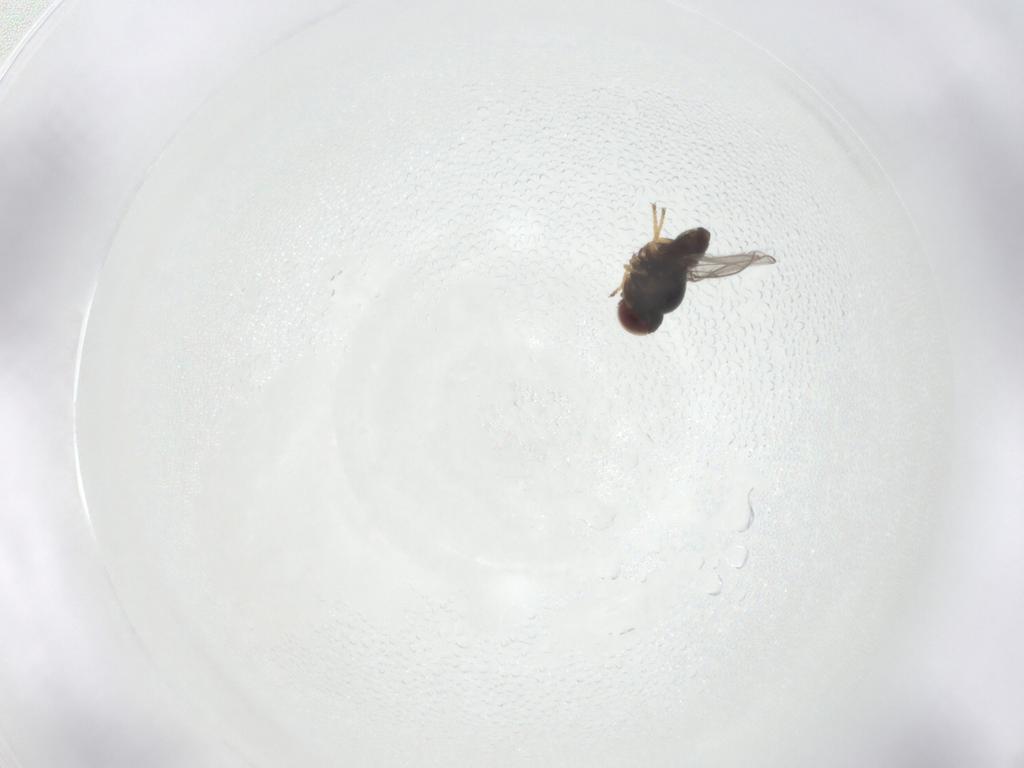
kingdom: Animalia
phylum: Arthropoda
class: Insecta
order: Diptera
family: Chloropidae
